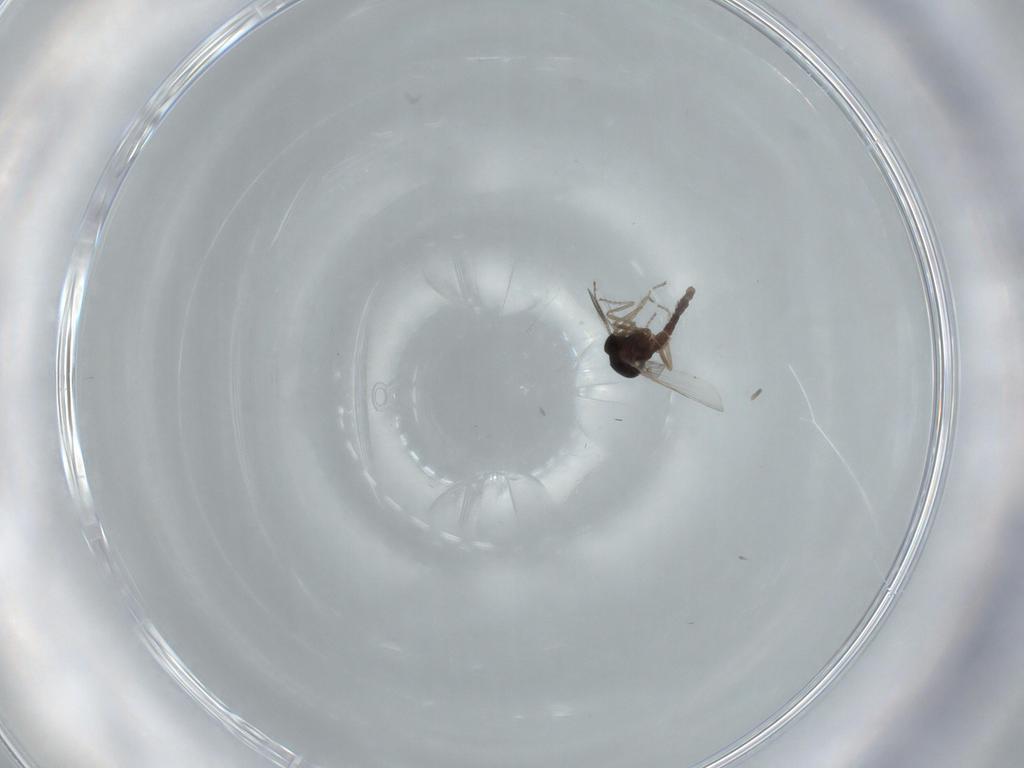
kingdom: Animalia
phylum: Arthropoda
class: Insecta
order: Diptera
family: Ceratopogonidae
